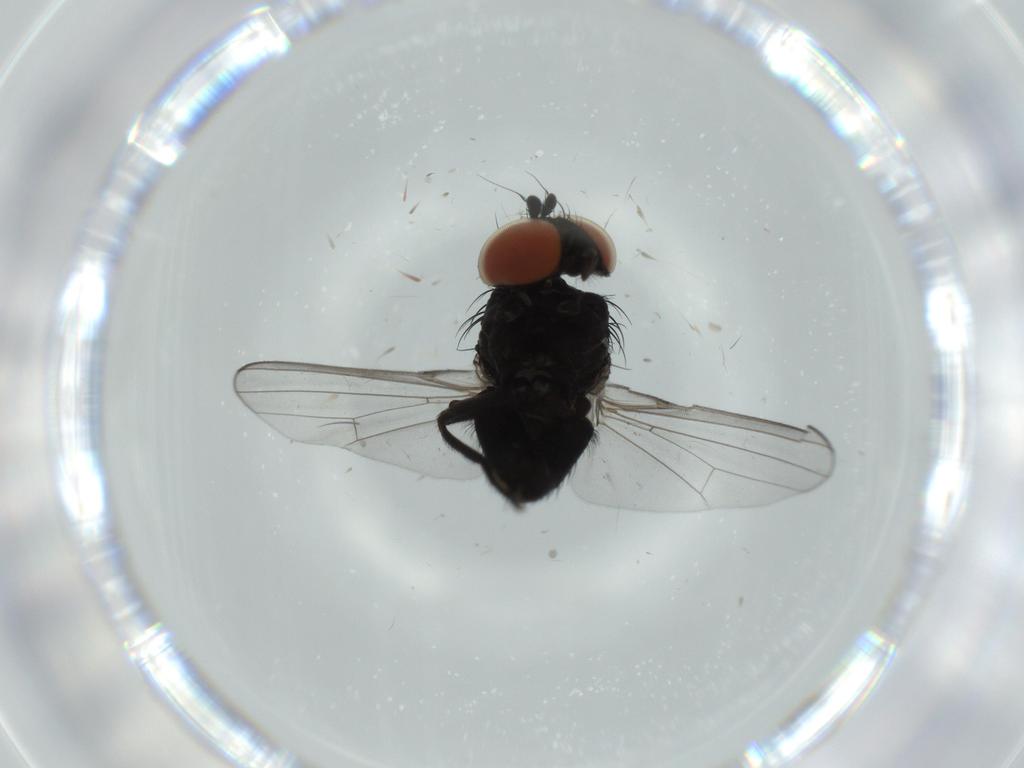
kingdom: Animalia
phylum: Arthropoda
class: Insecta
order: Diptera
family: Milichiidae
